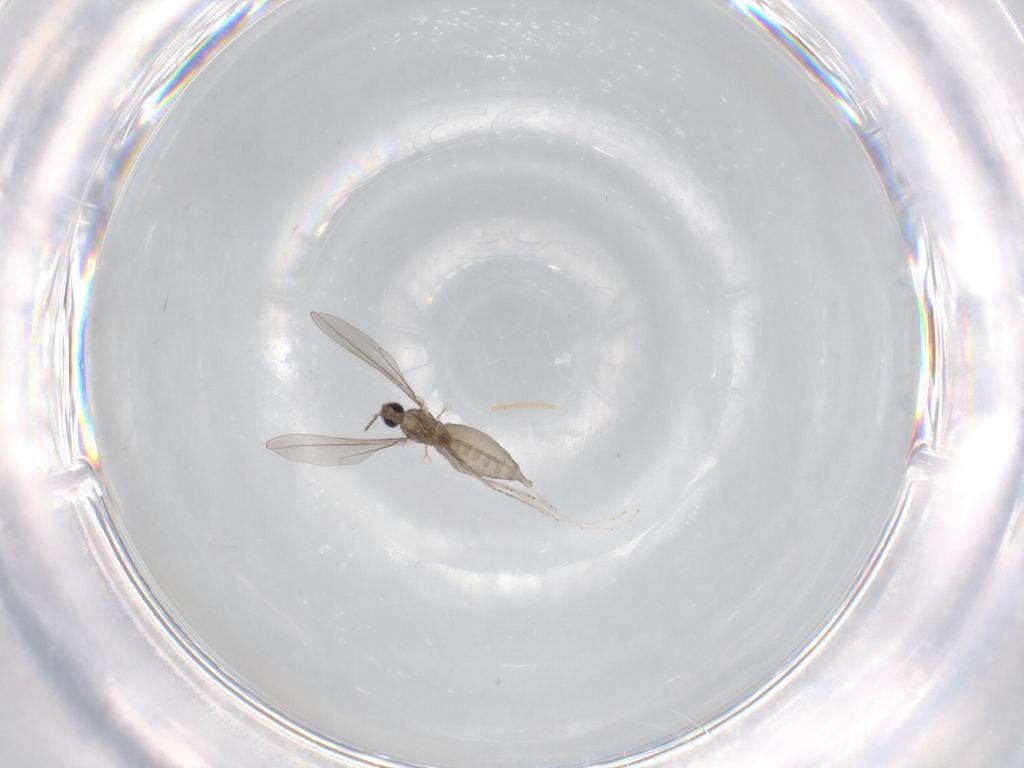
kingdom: Animalia
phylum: Arthropoda
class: Insecta
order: Diptera
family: Cecidomyiidae
